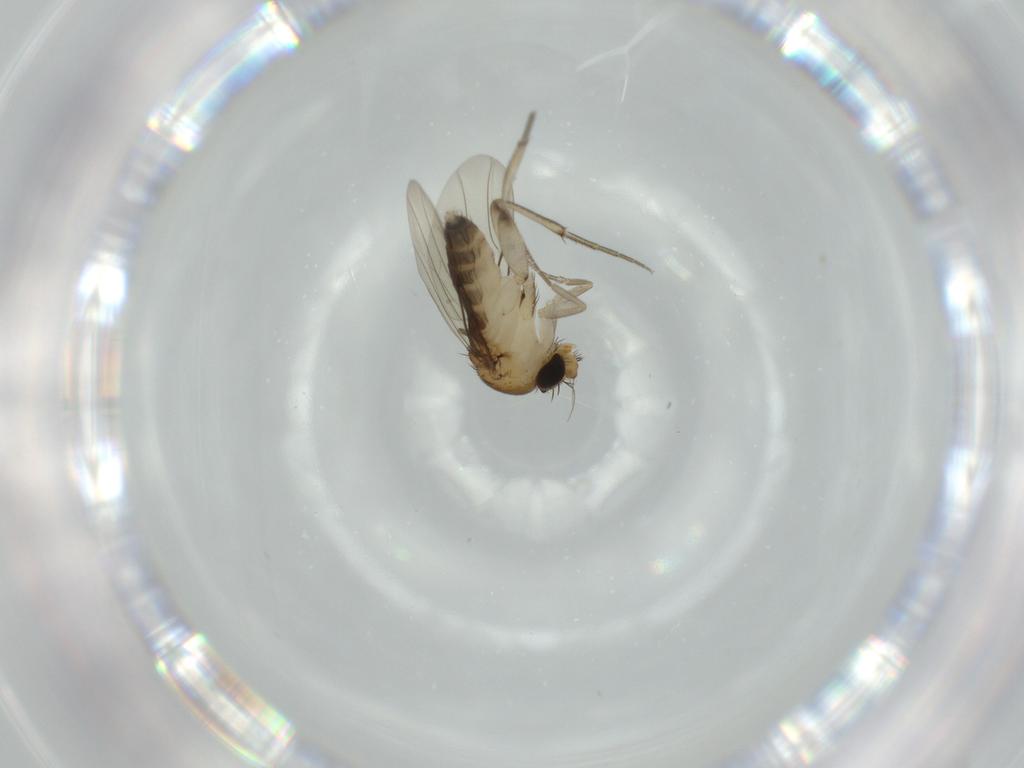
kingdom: Animalia
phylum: Arthropoda
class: Insecta
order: Diptera
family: Phoridae
